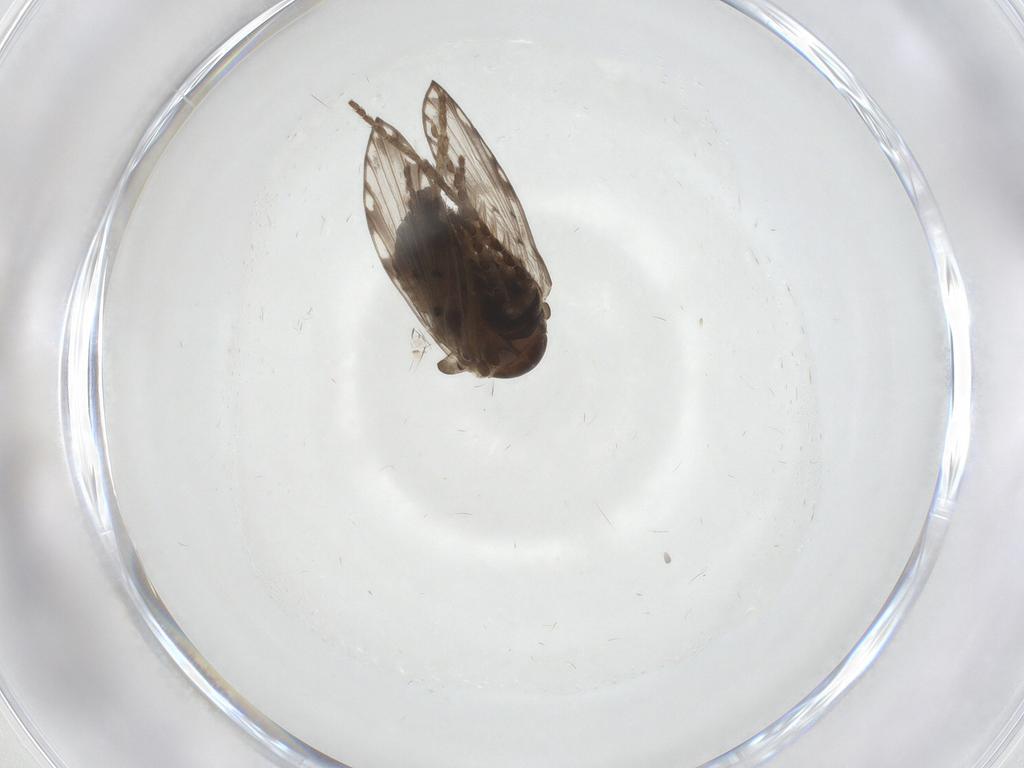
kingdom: Animalia
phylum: Arthropoda
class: Insecta
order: Diptera
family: Psychodidae
